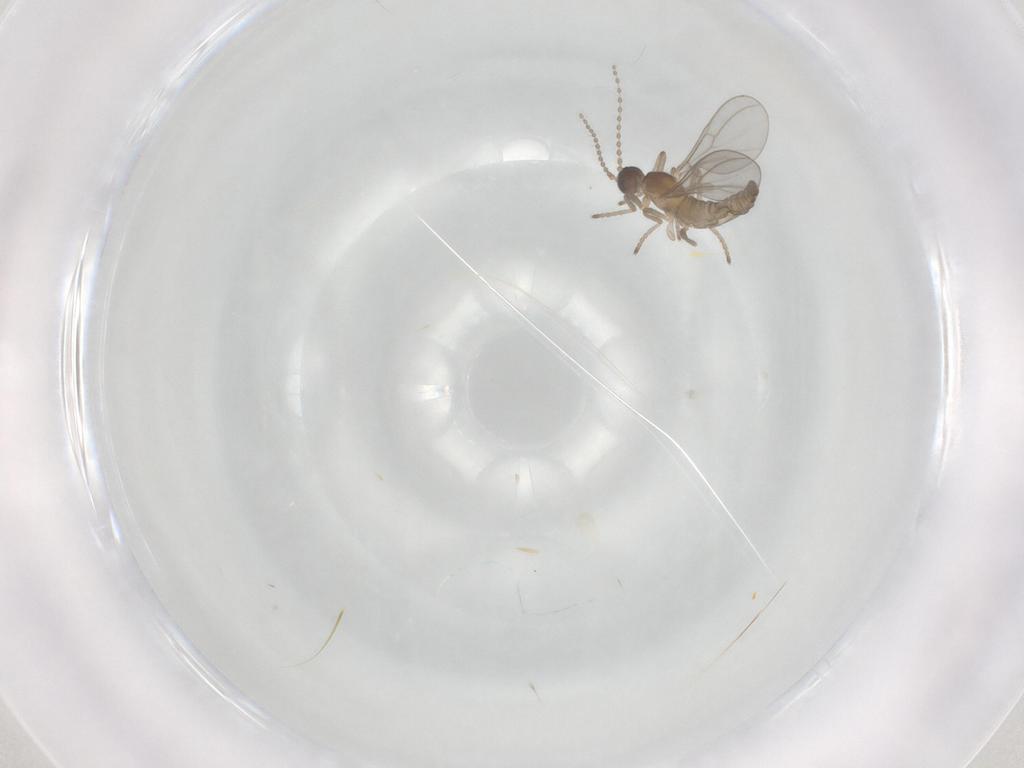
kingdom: Animalia
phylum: Arthropoda
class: Insecta
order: Diptera
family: Cecidomyiidae
